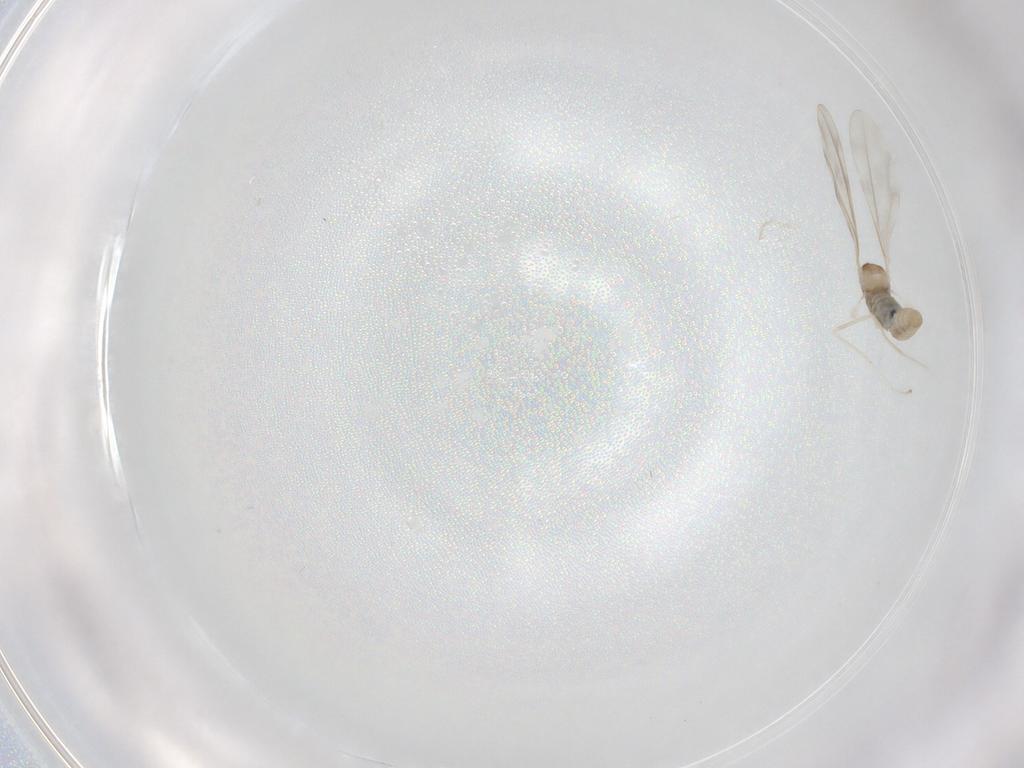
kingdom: Animalia
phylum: Arthropoda
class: Insecta
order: Diptera
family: Cecidomyiidae
